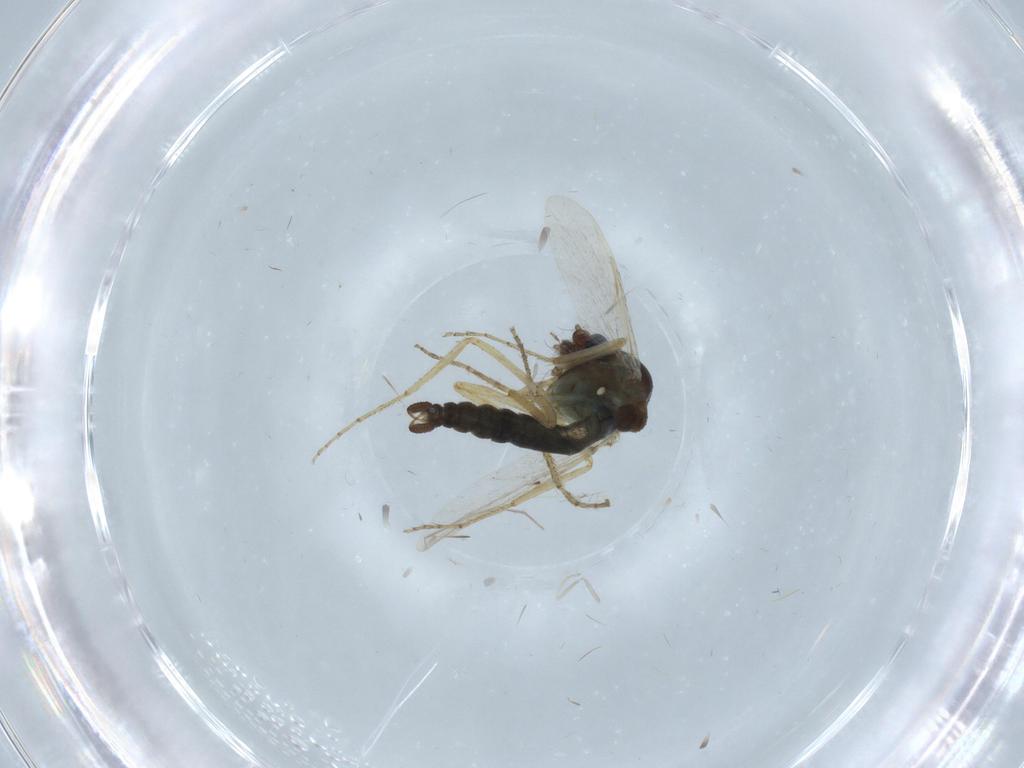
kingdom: Animalia
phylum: Arthropoda
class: Insecta
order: Diptera
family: Ceratopogonidae
